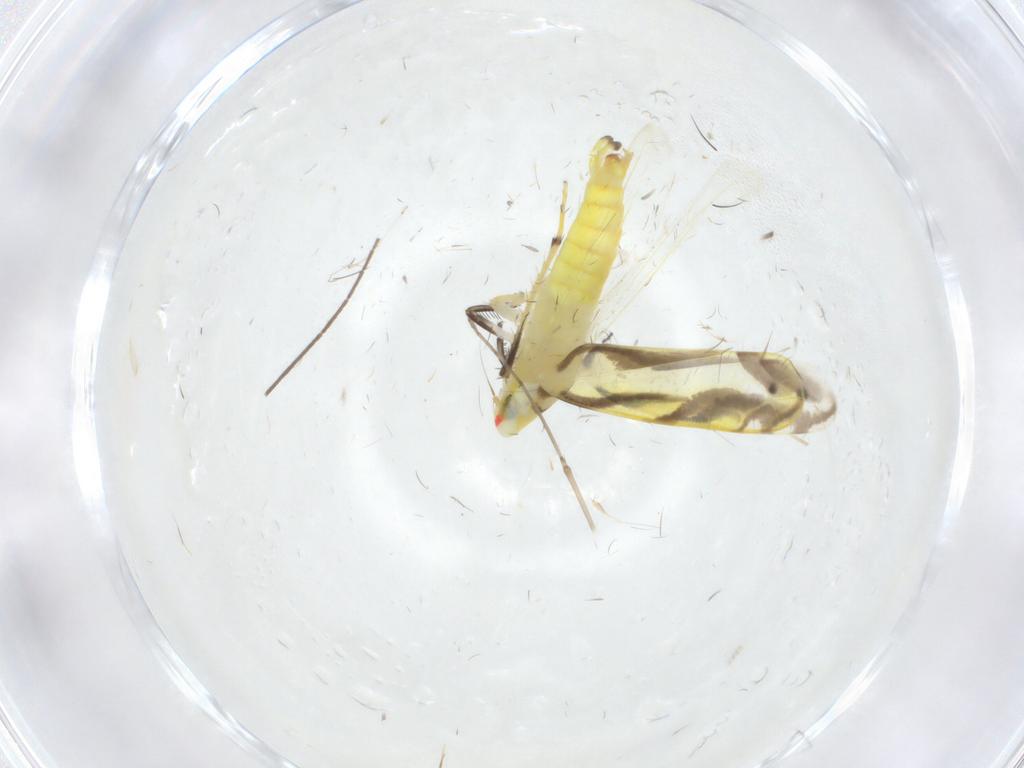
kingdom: Animalia
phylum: Arthropoda
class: Insecta
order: Hemiptera
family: Cicadellidae
